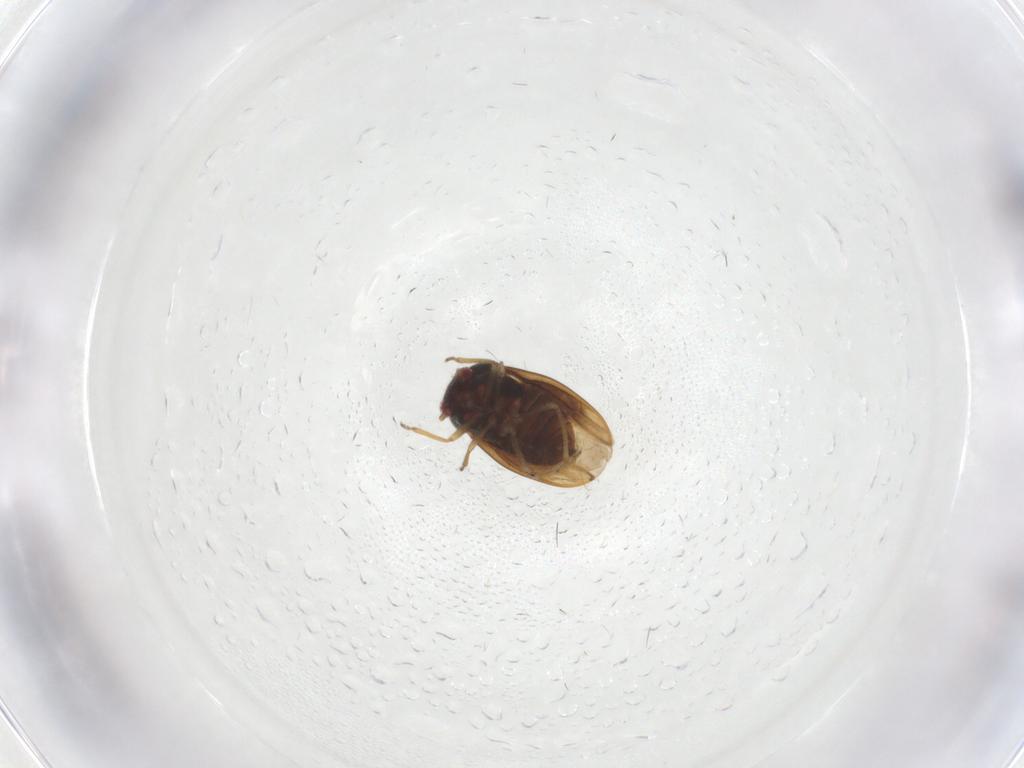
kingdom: Animalia
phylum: Arthropoda
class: Insecta
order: Hemiptera
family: Schizopteridae
